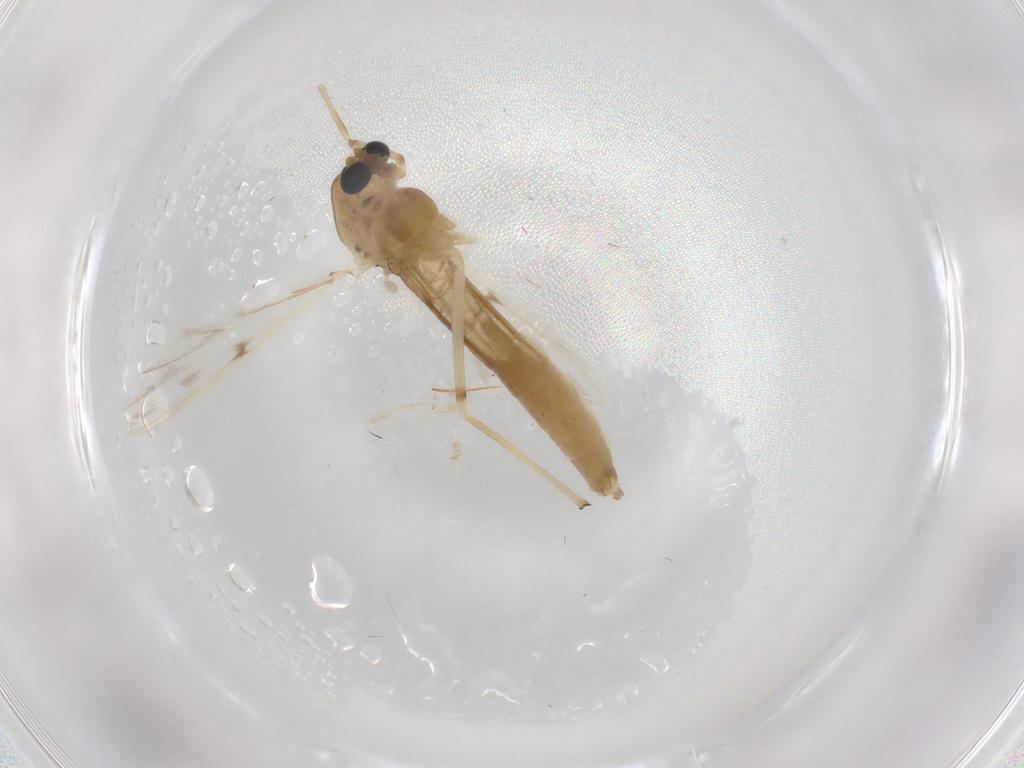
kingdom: Animalia
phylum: Arthropoda
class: Insecta
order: Diptera
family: Chironomidae
